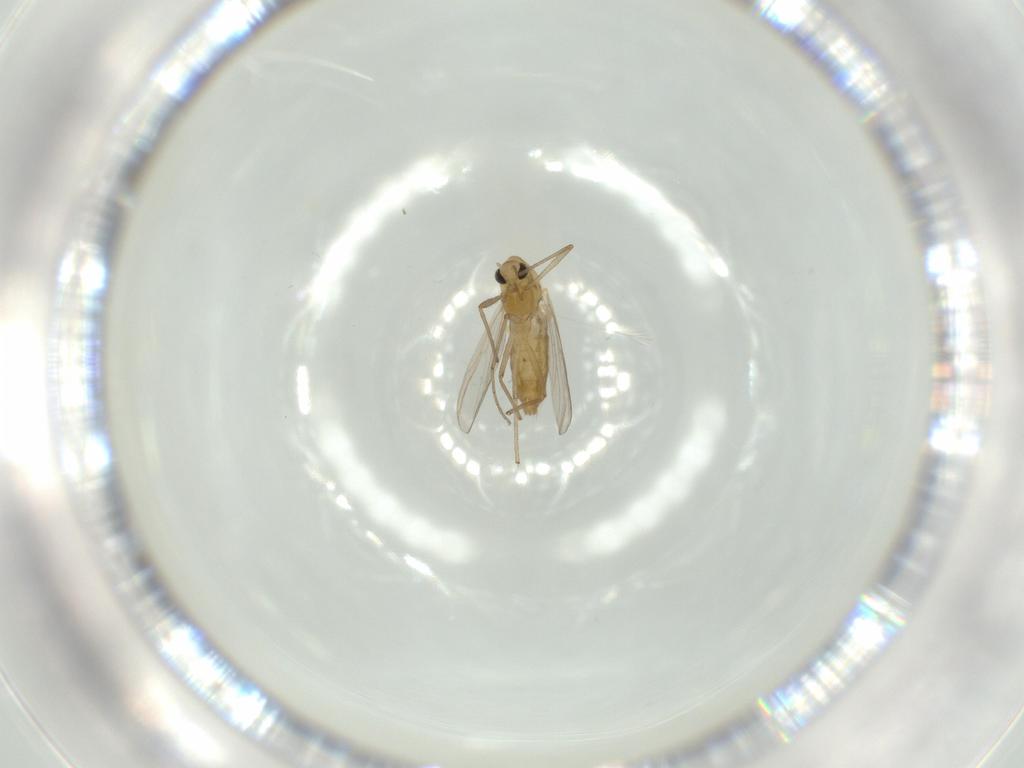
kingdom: Animalia
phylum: Arthropoda
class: Insecta
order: Diptera
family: Chironomidae
